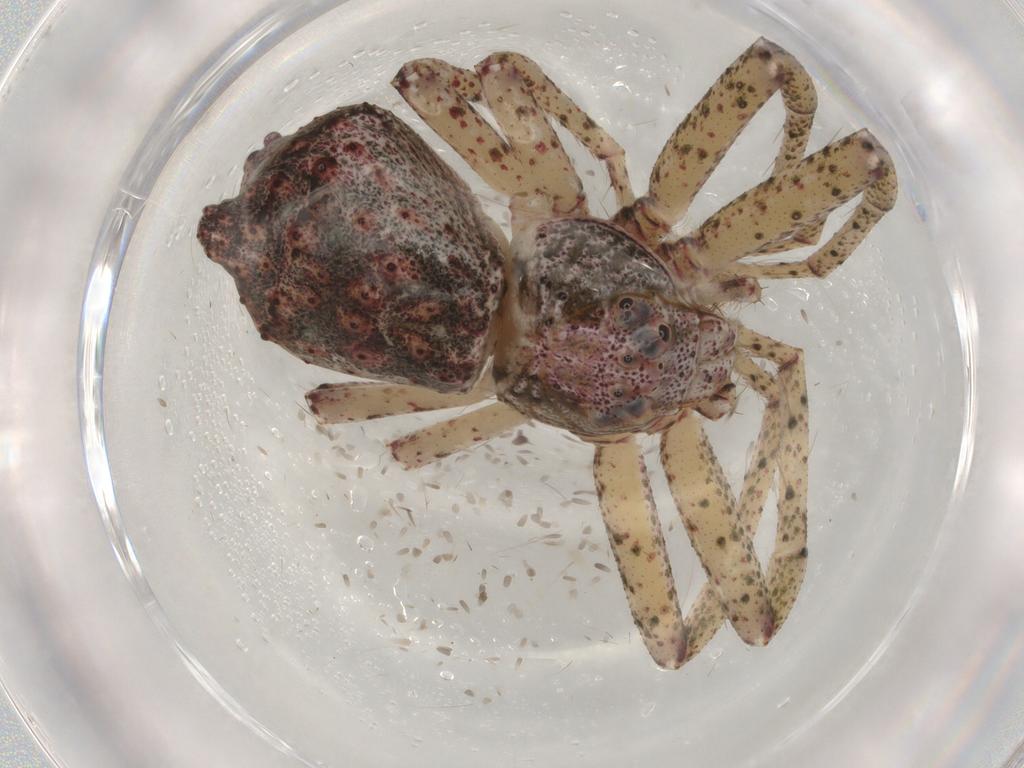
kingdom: Animalia
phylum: Arthropoda
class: Arachnida
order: Araneae
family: Thomisidae
